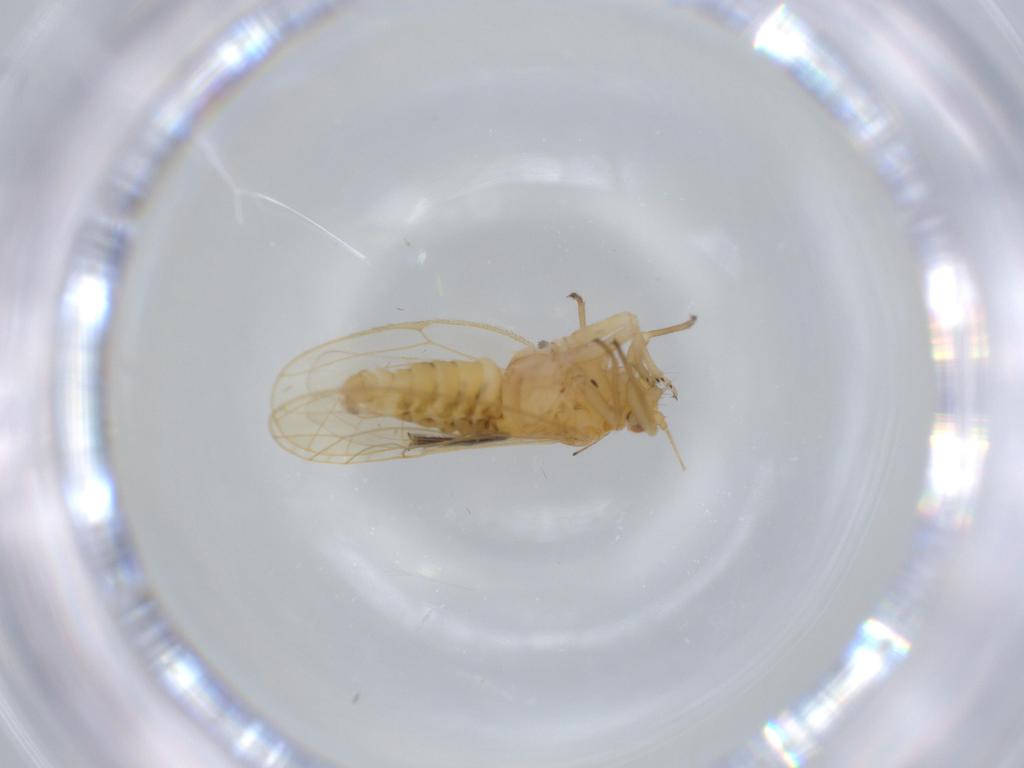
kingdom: Animalia
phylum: Arthropoda
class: Insecta
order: Hemiptera
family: Psyllidae
